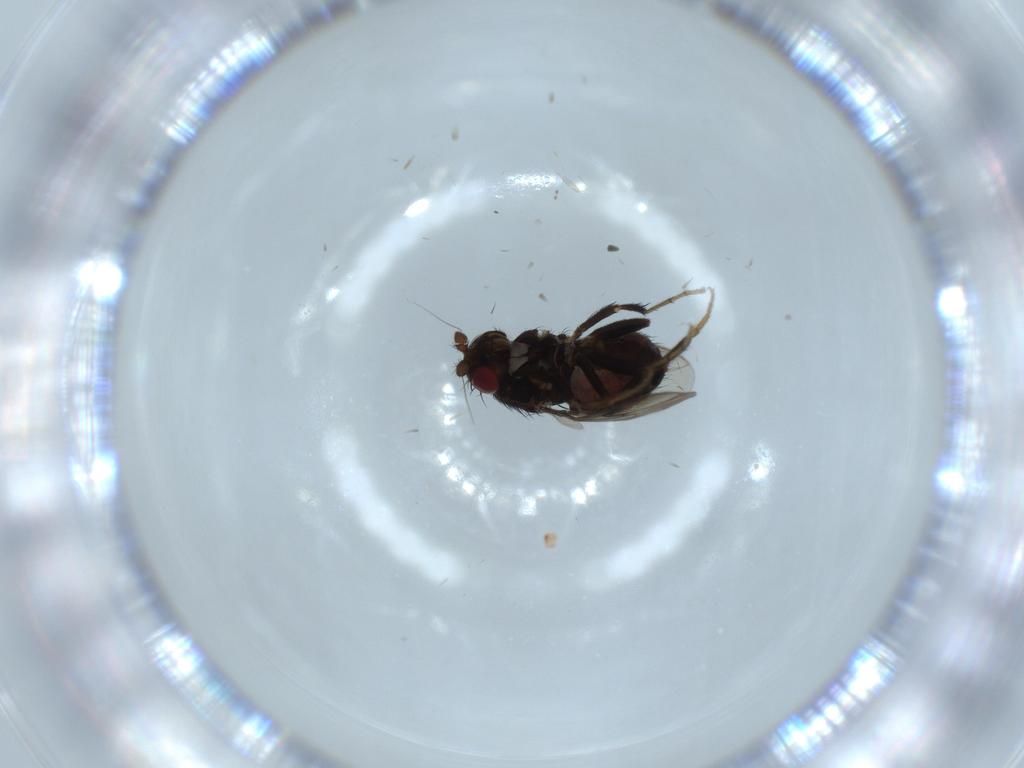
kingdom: Animalia
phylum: Arthropoda
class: Insecta
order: Diptera
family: Sphaeroceridae
